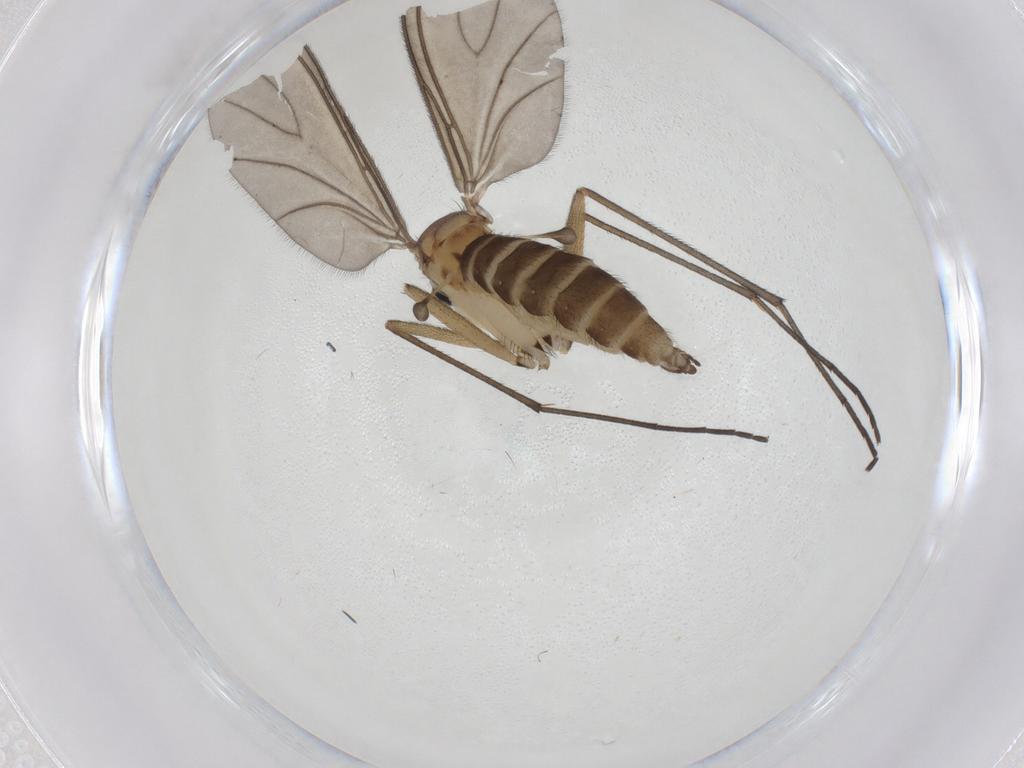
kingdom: Animalia
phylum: Arthropoda
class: Insecta
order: Diptera
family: Sciaridae
